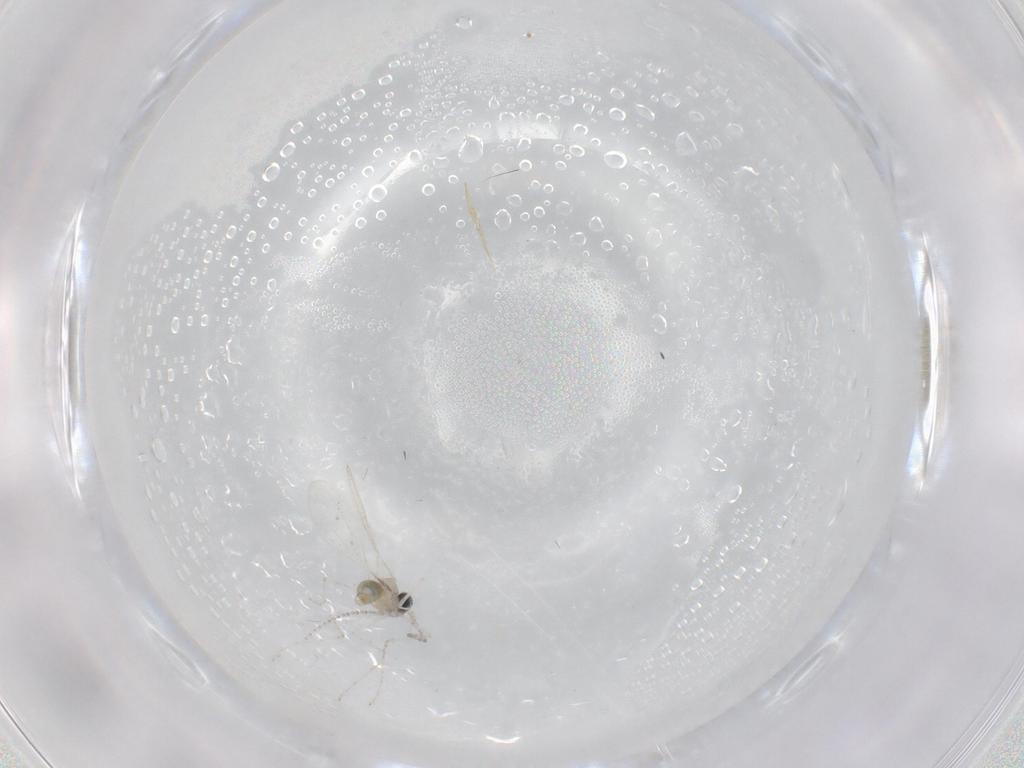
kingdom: Animalia
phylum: Arthropoda
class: Insecta
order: Diptera
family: Cecidomyiidae
